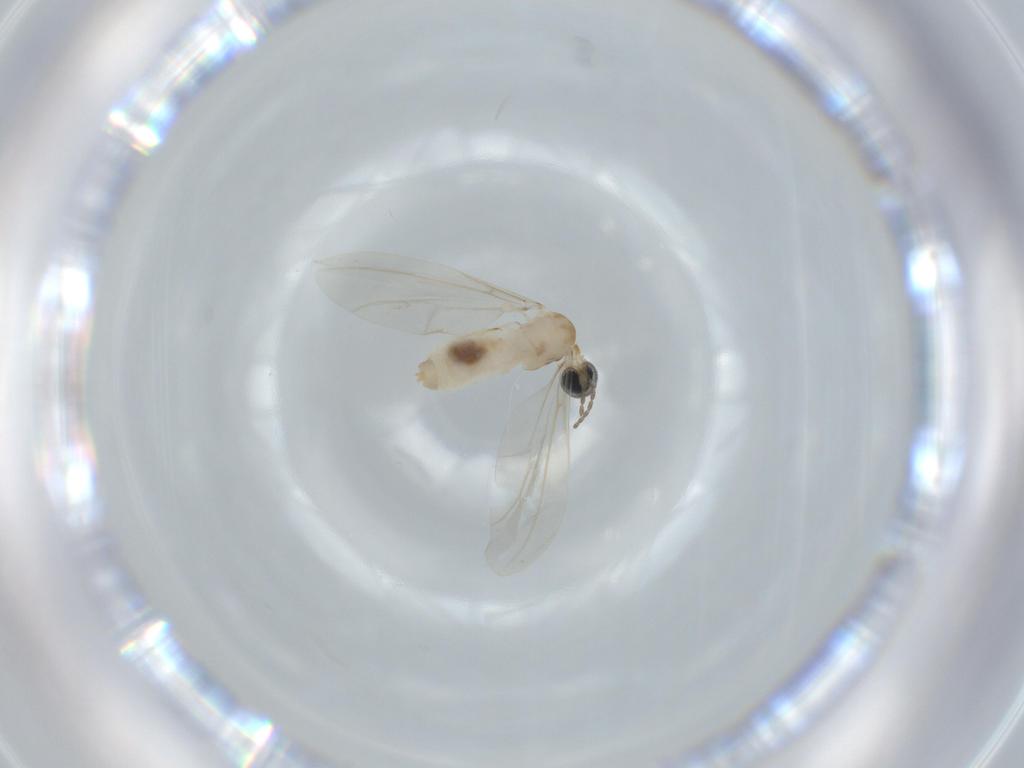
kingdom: Animalia
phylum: Arthropoda
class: Insecta
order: Diptera
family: Cecidomyiidae
